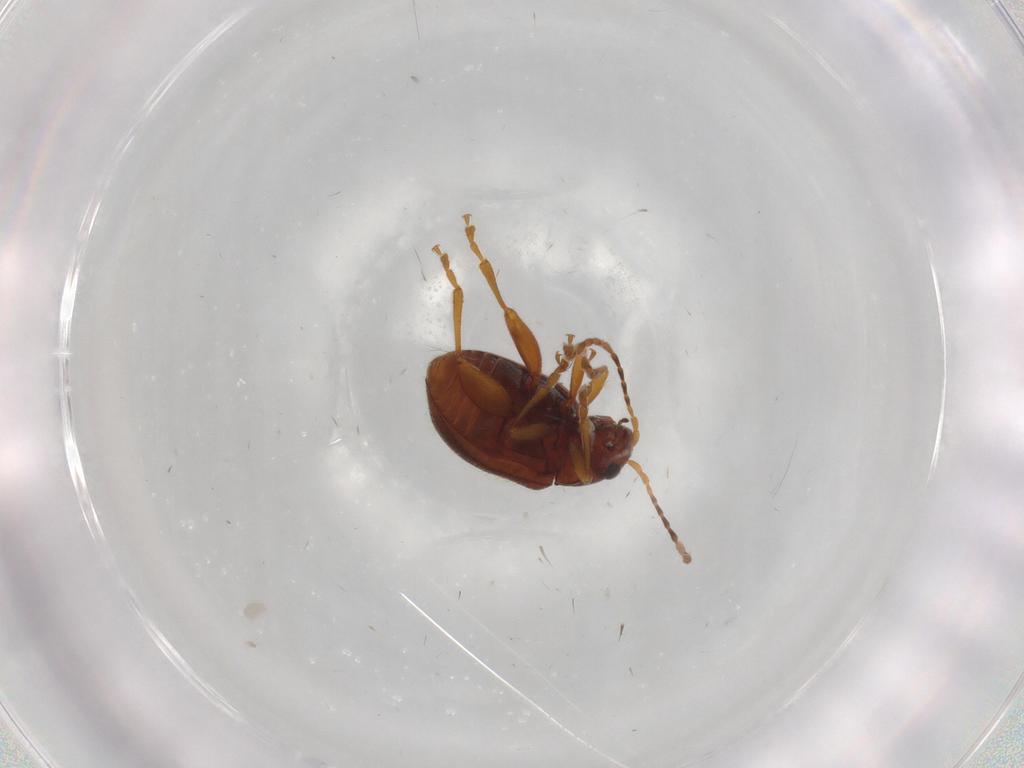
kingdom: Animalia
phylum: Arthropoda
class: Insecta
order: Coleoptera
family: Chrysomelidae
